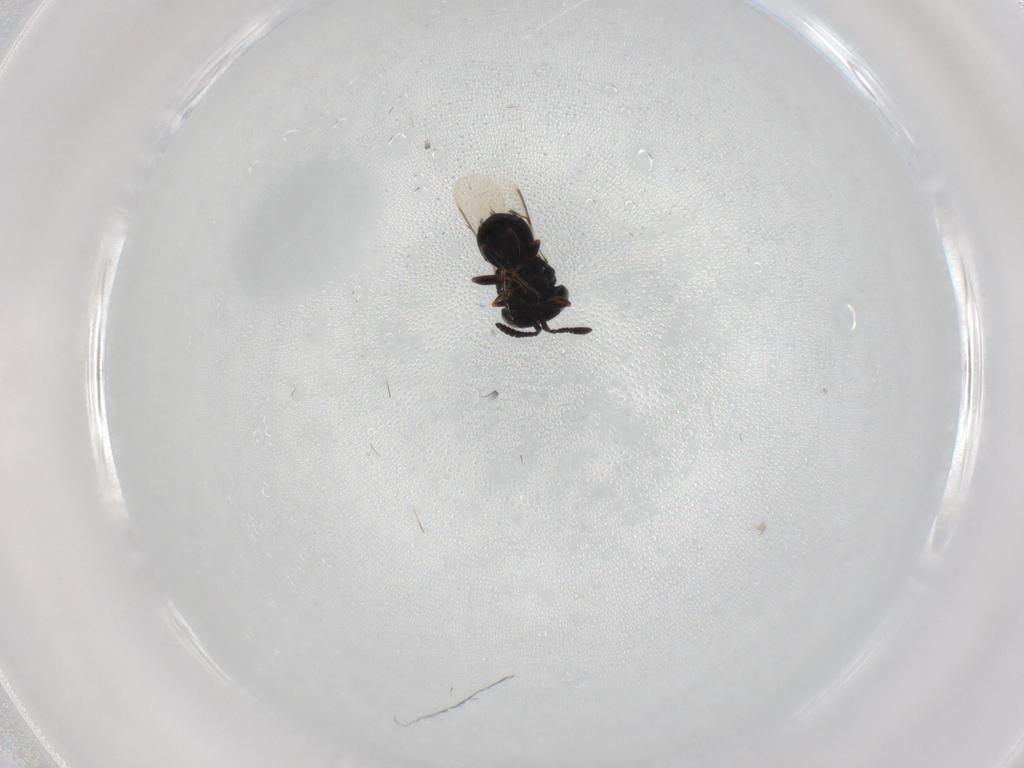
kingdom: Animalia
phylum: Arthropoda
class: Insecta
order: Hymenoptera
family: Scelionidae
